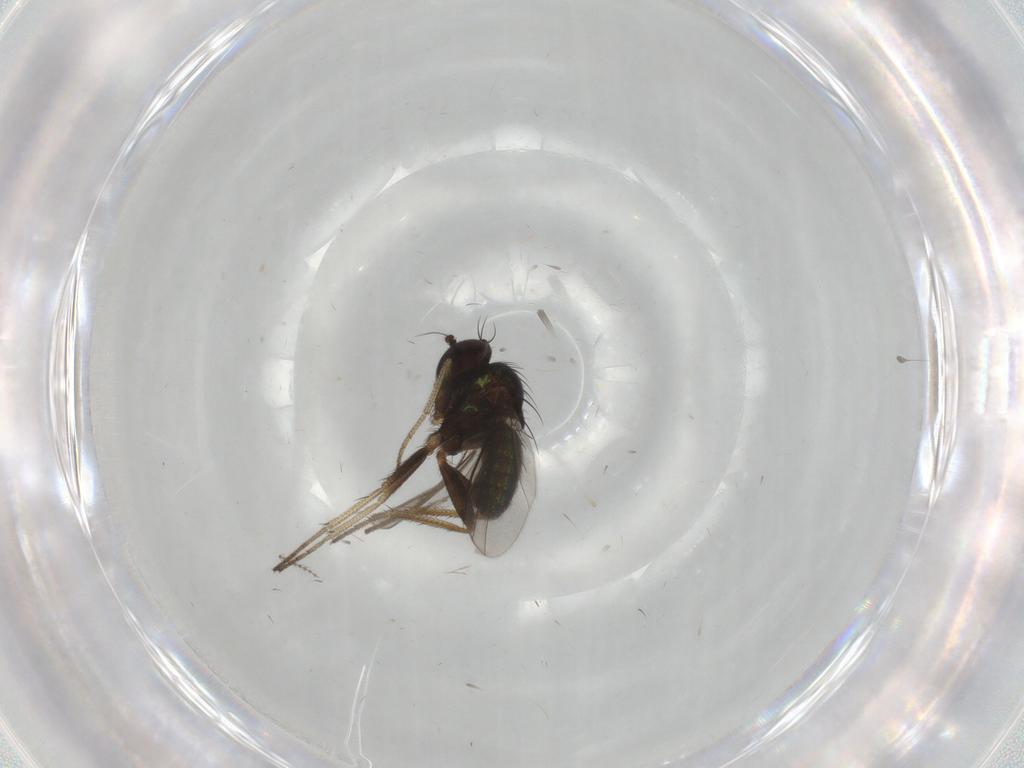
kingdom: Animalia
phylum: Arthropoda
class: Insecta
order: Diptera
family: Dolichopodidae
